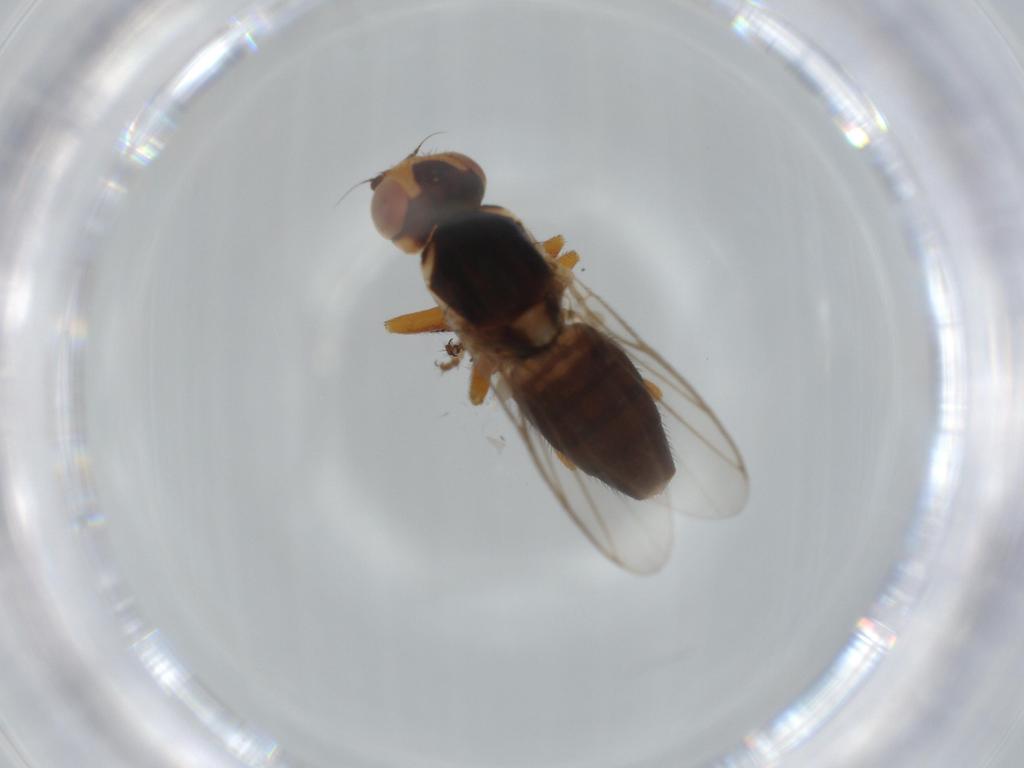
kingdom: Animalia
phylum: Arthropoda
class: Insecta
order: Diptera
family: Chloropidae
